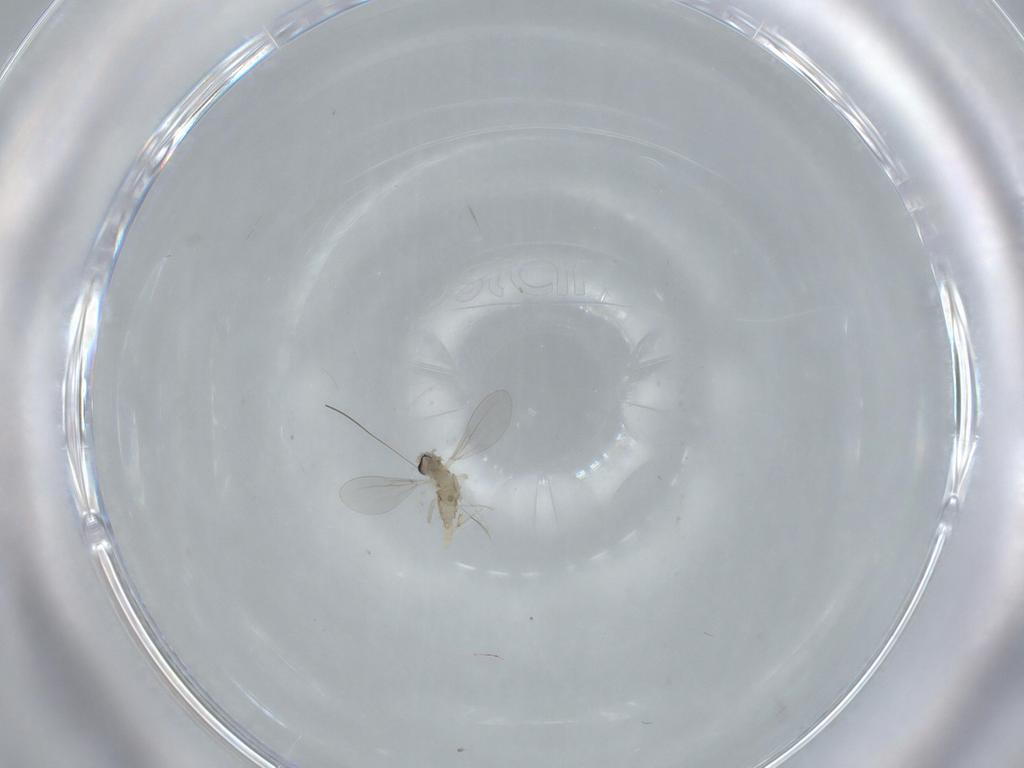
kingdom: Animalia
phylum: Arthropoda
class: Insecta
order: Diptera
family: Cecidomyiidae
